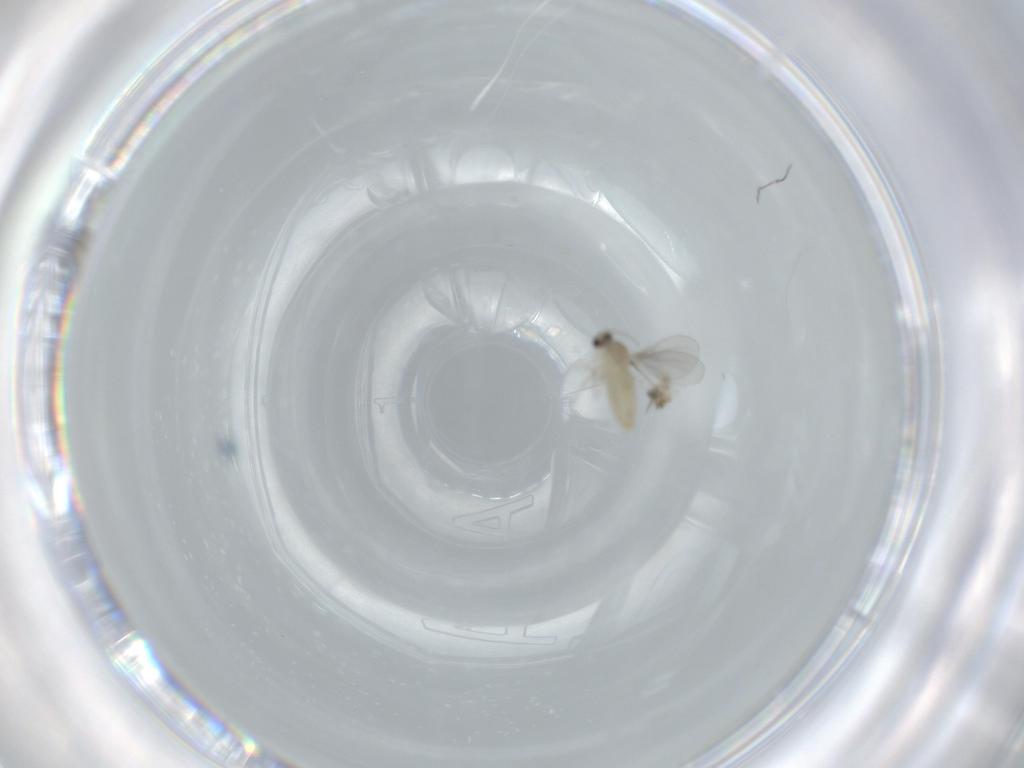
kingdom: Animalia
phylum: Arthropoda
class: Insecta
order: Diptera
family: Cecidomyiidae
